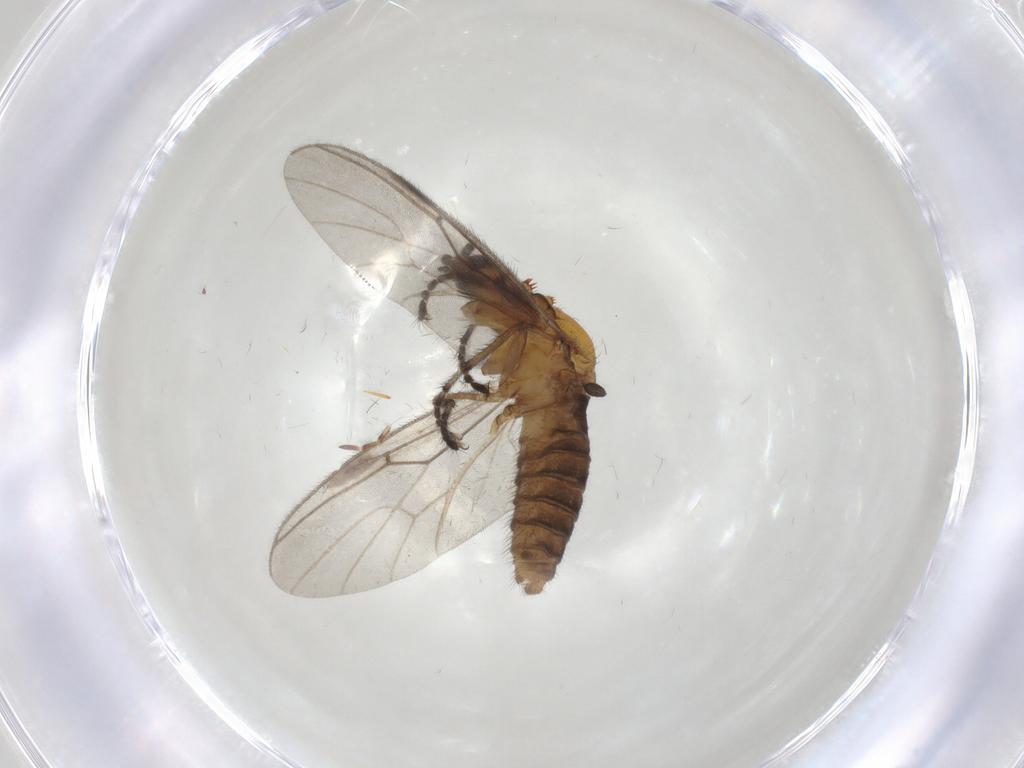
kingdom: Animalia
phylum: Arthropoda
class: Insecta
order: Diptera
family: Bibionidae
